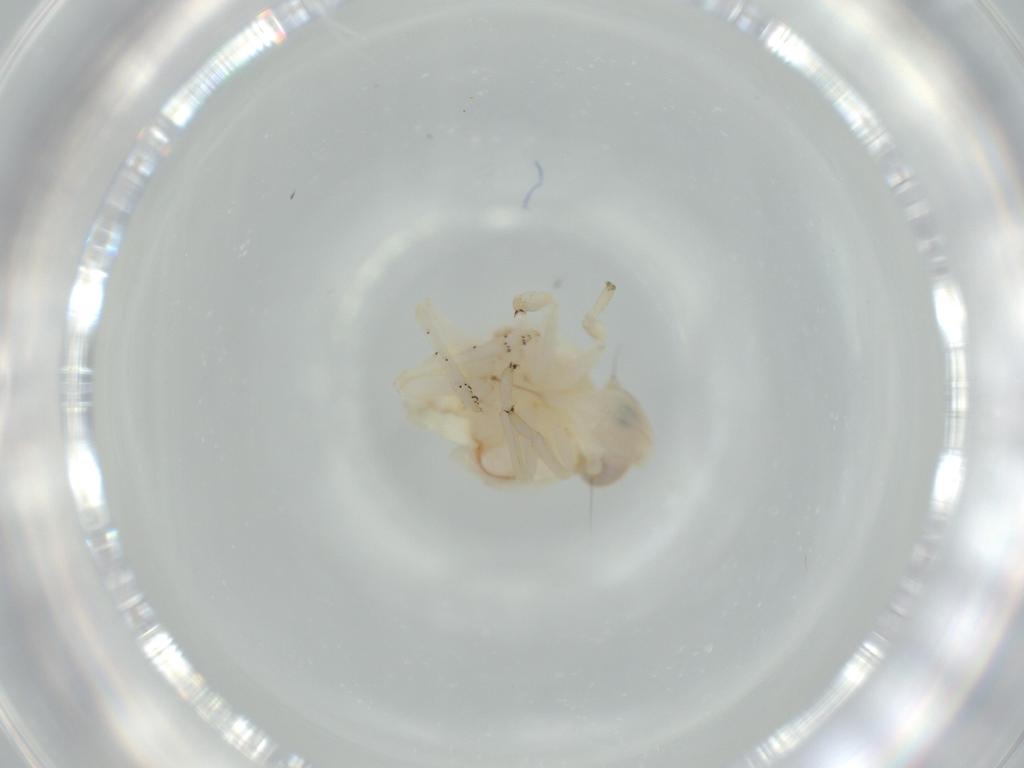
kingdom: Animalia
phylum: Arthropoda
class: Insecta
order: Hemiptera
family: Nogodinidae
